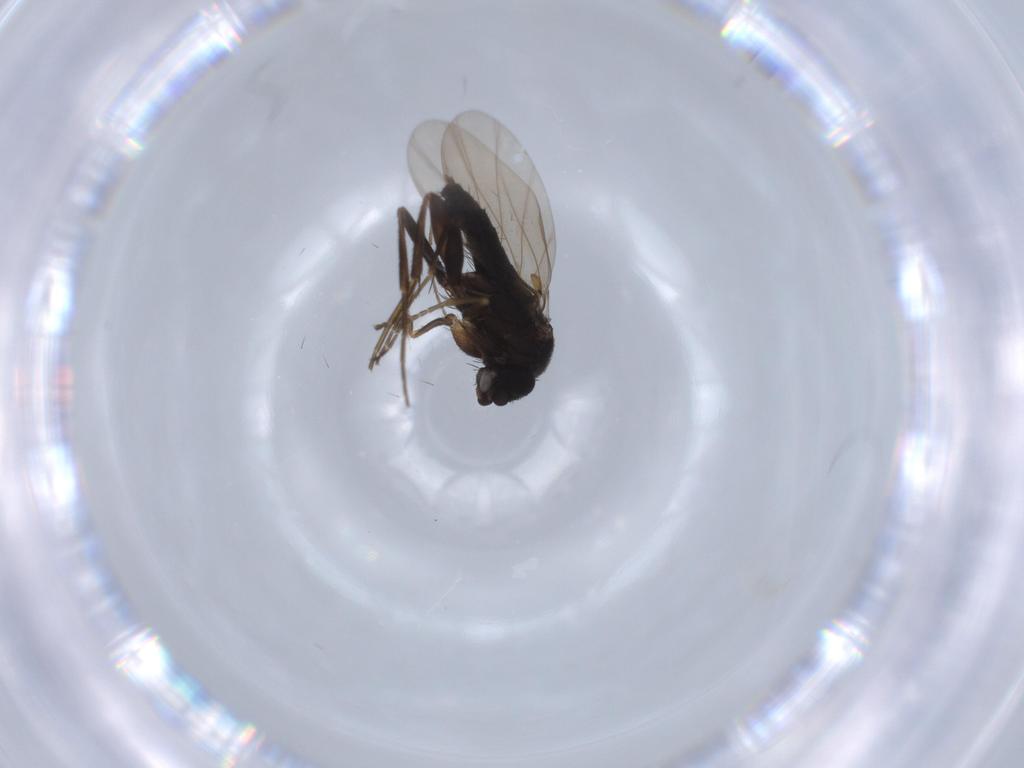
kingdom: Animalia
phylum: Arthropoda
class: Insecta
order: Diptera
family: Phoridae
